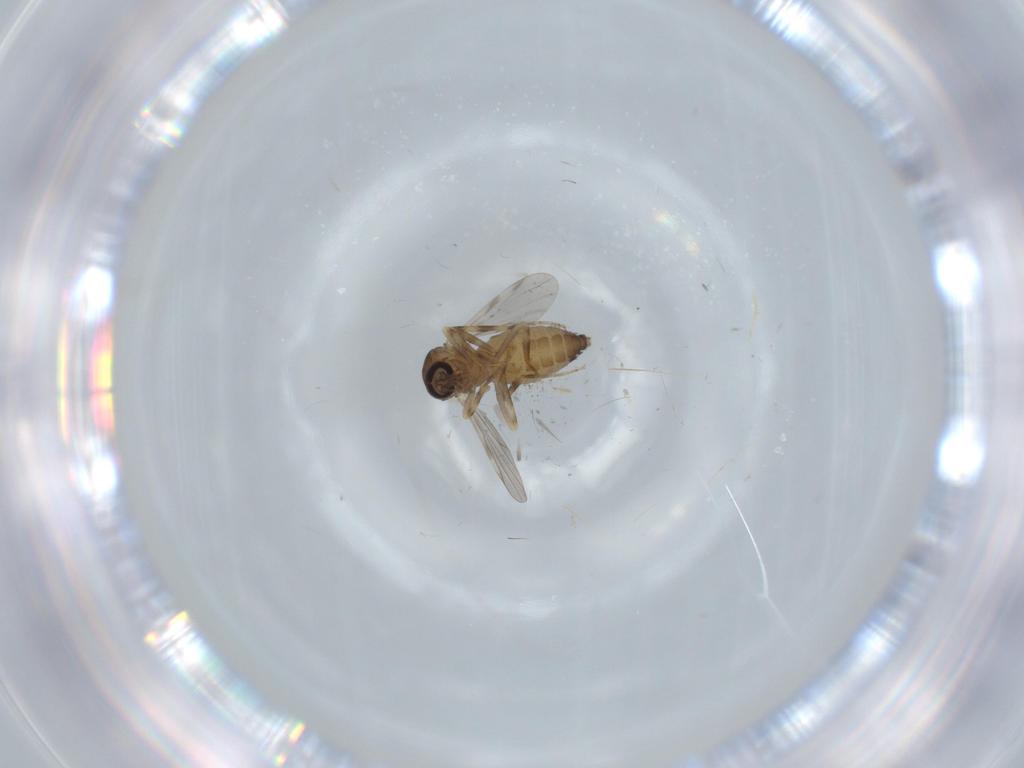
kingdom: Animalia
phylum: Arthropoda
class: Insecta
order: Diptera
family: Ceratopogonidae
